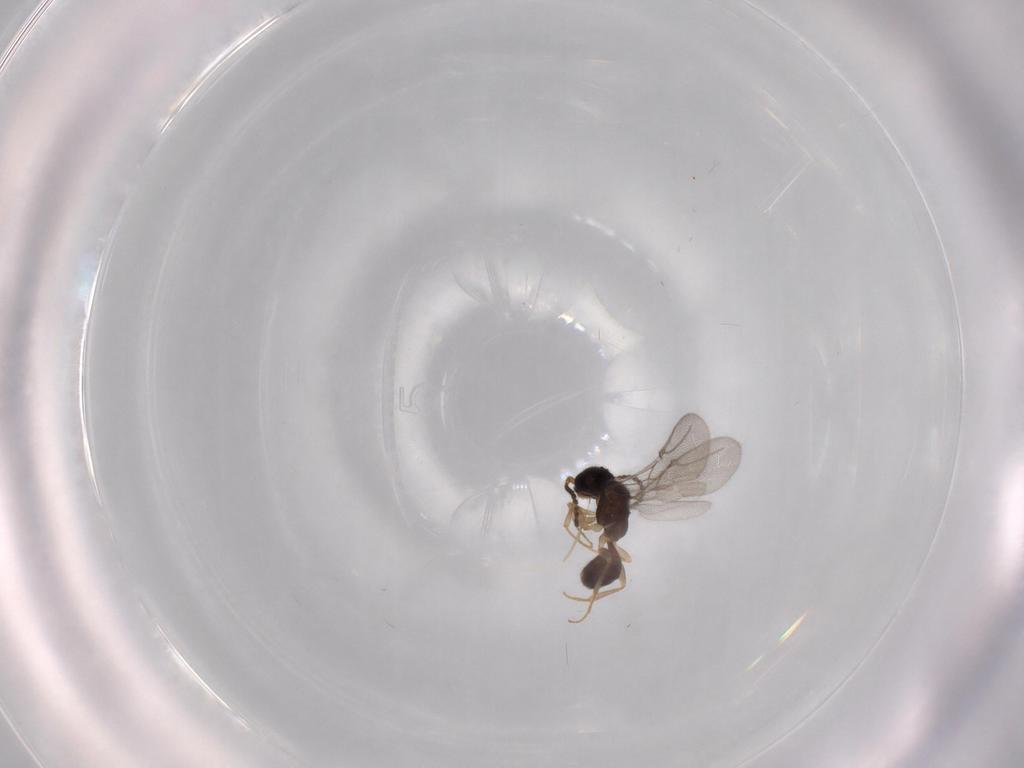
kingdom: Animalia
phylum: Arthropoda
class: Insecta
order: Hymenoptera
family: Bethylidae
